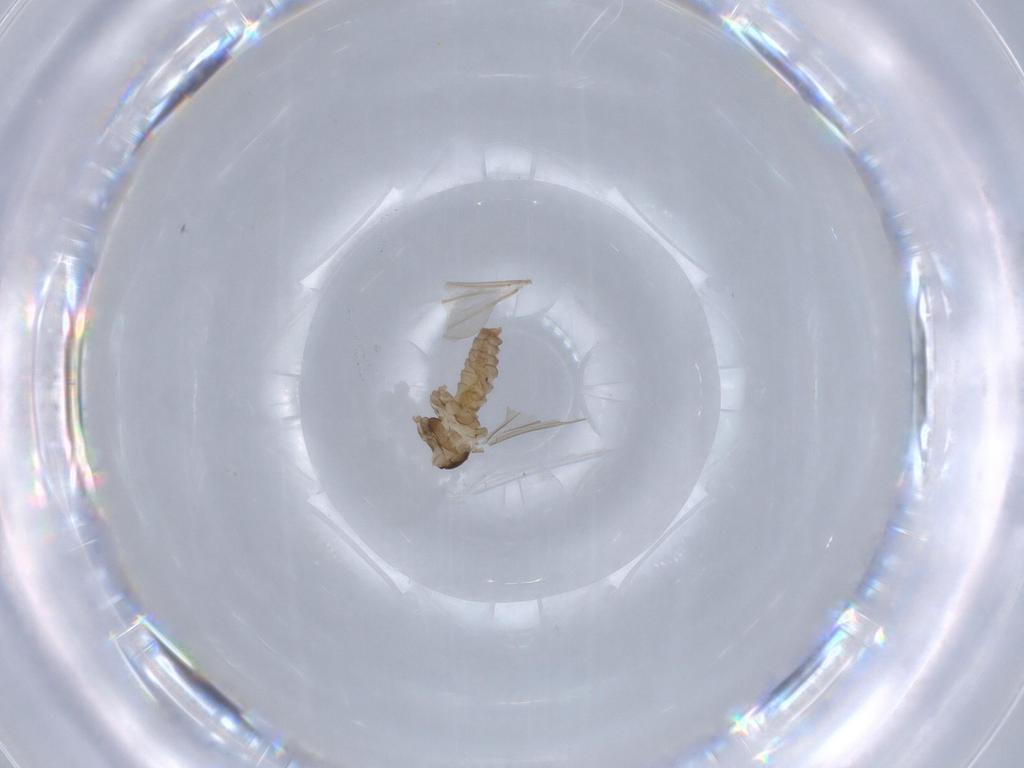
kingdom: Animalia
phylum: Arthropoda
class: Insecta
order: Diptera
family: Cecidomyiidae
